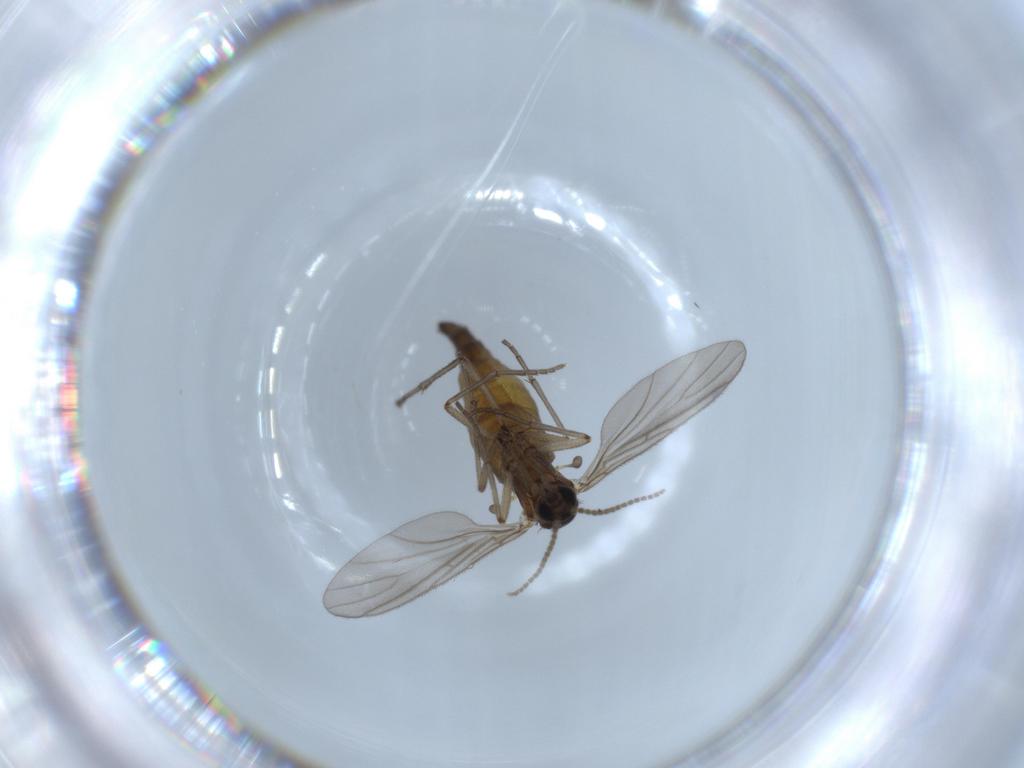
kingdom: Animalia
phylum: Arthropoda
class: Insecta
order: Diptera
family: Sciaridae
